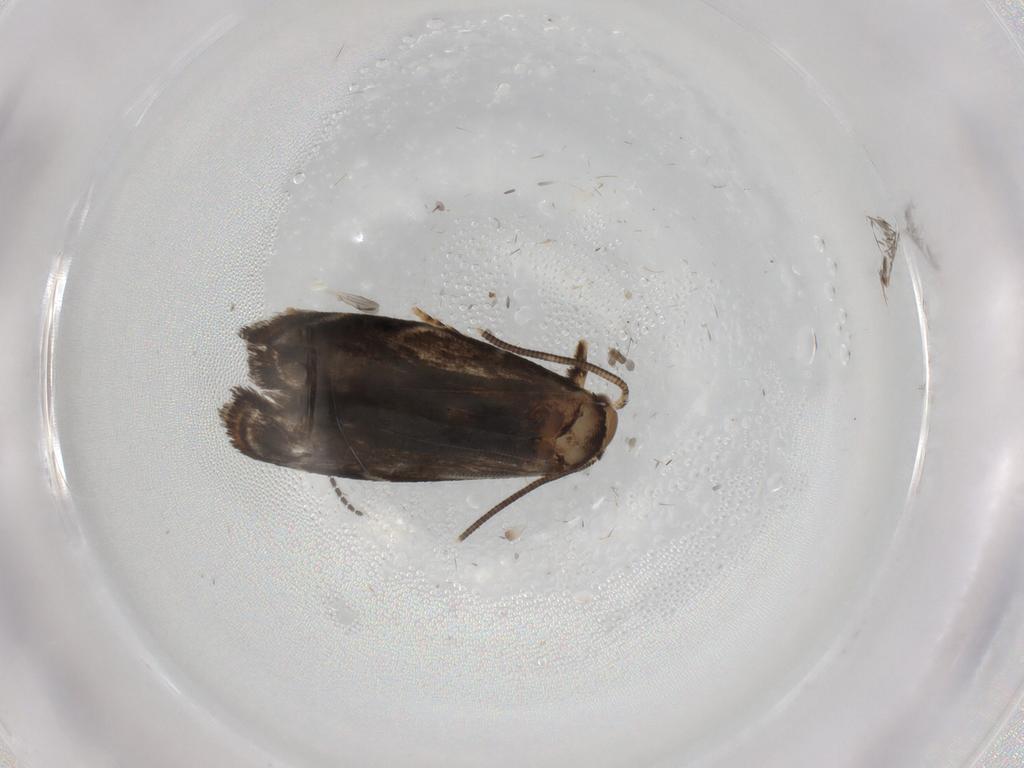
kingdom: Animalia
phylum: Arthropoda
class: Insecta
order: Lepidoptera
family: Dryadaulidae
